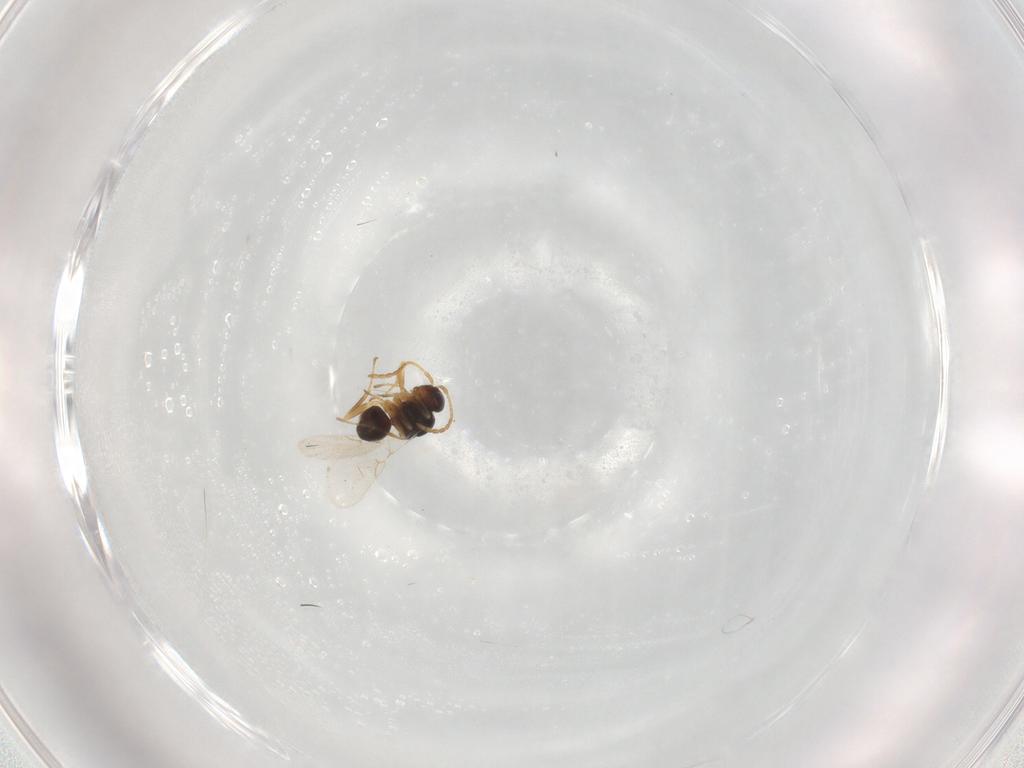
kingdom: Animalia
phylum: Arthropoda
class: Insecta
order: Hymenoptera
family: Figitidae
